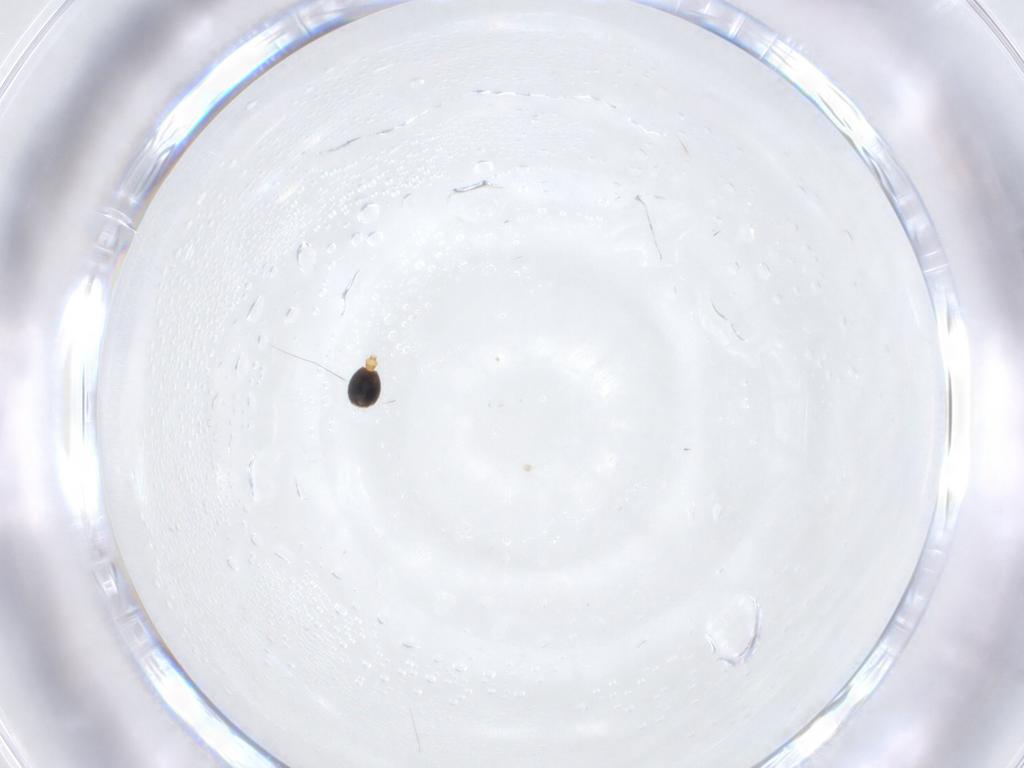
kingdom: Animalia
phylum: Arthropoda
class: Insecta
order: Hymenoptera
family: Formicidae
